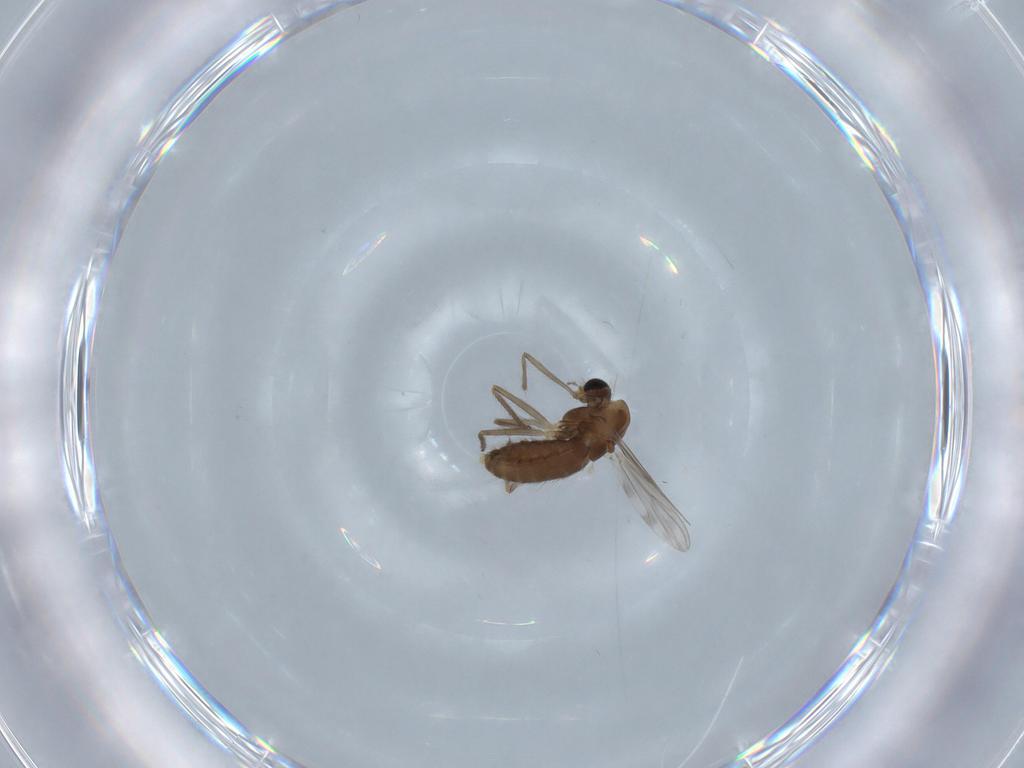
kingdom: Animalia
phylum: Arthropoda
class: Insecta
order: Diptera
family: Chironomidae
